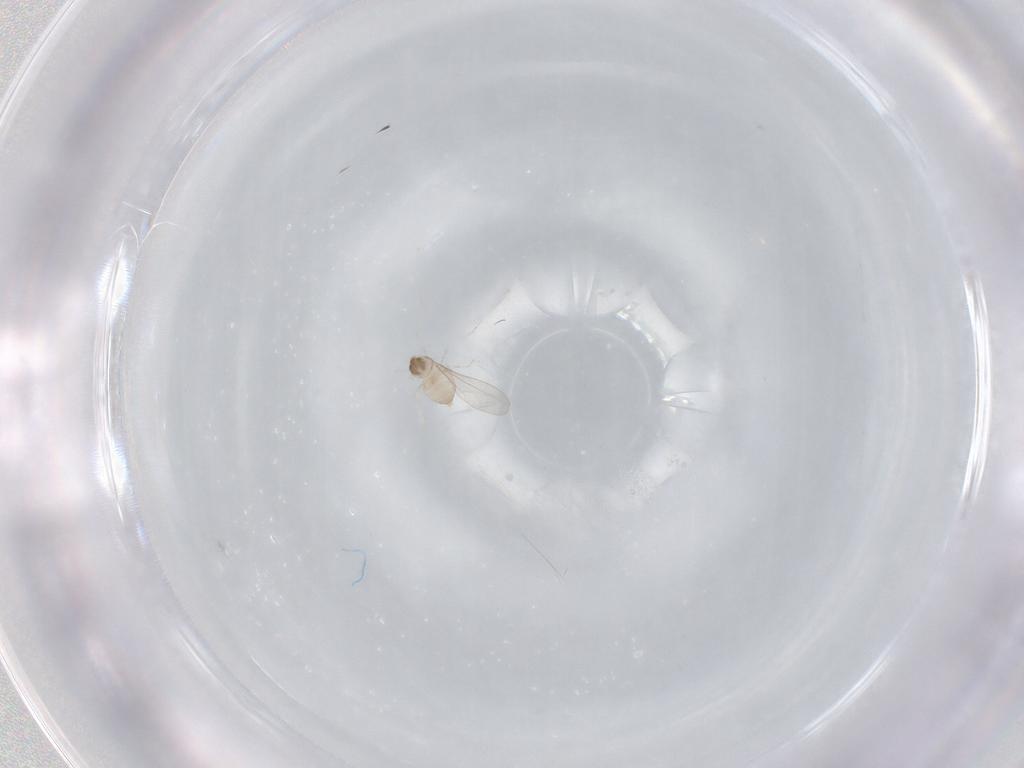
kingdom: Animalia
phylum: Arthropoda
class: Insecta
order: Diptera
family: Cecidomyiidae
